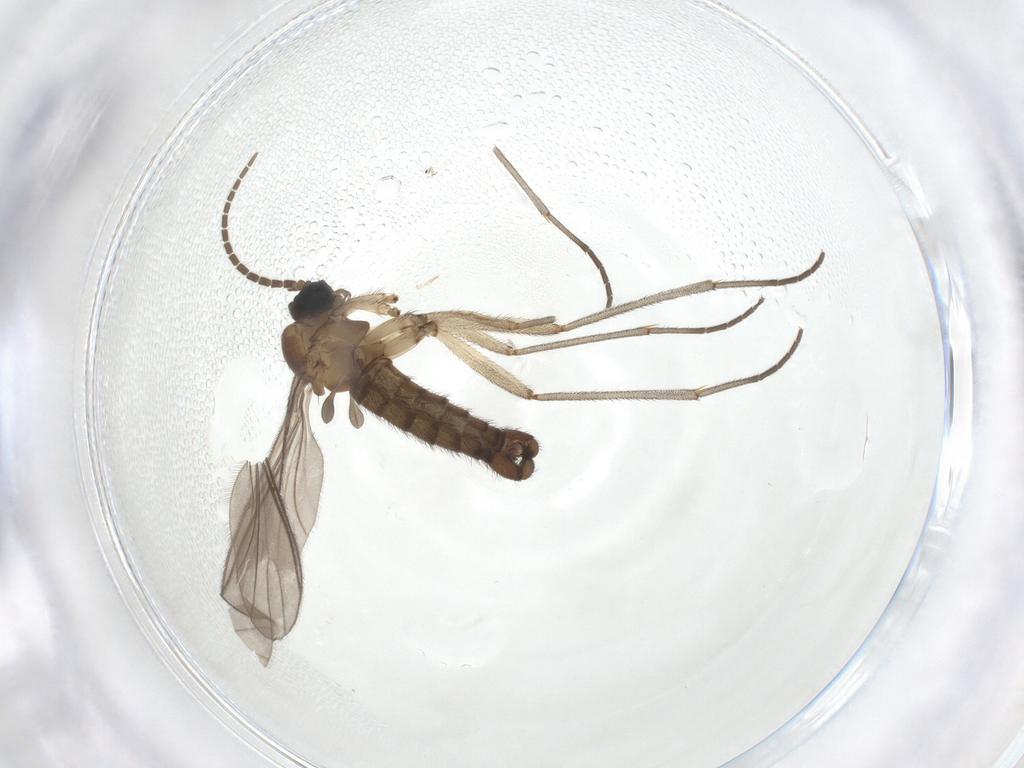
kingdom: Animalia
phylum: Arthropoda
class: Insecta
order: Diptera
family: Sciaridae
